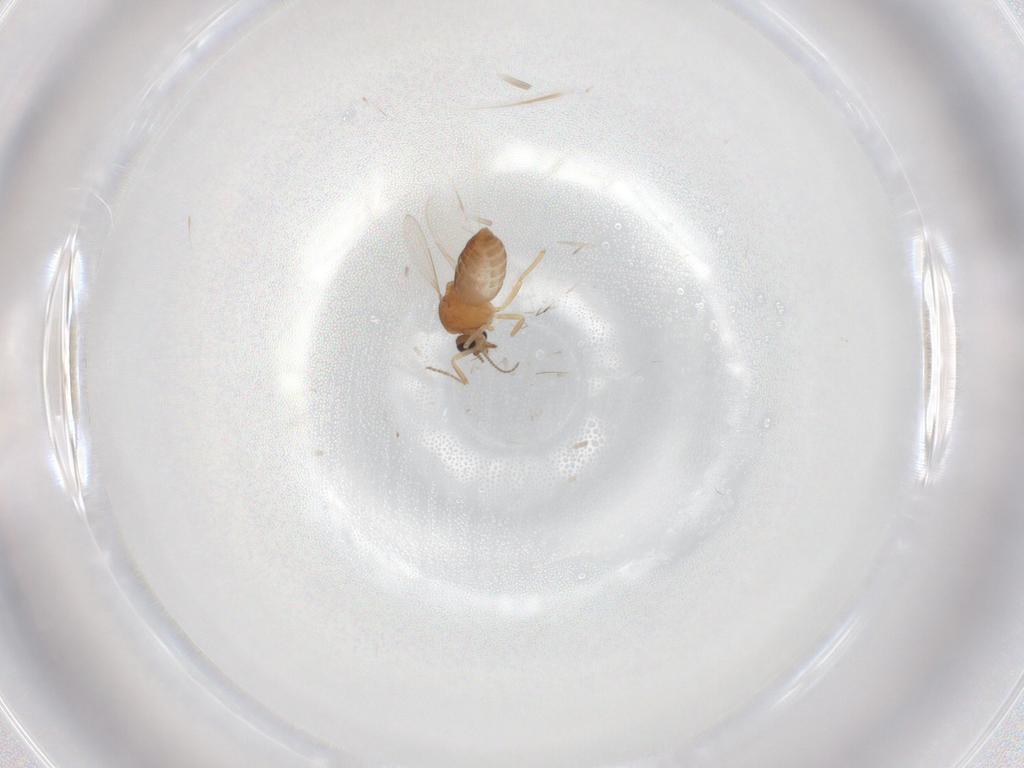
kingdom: Animalia
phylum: Arthropoda
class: Insecta
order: Diptera
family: Ceratopogonidae
